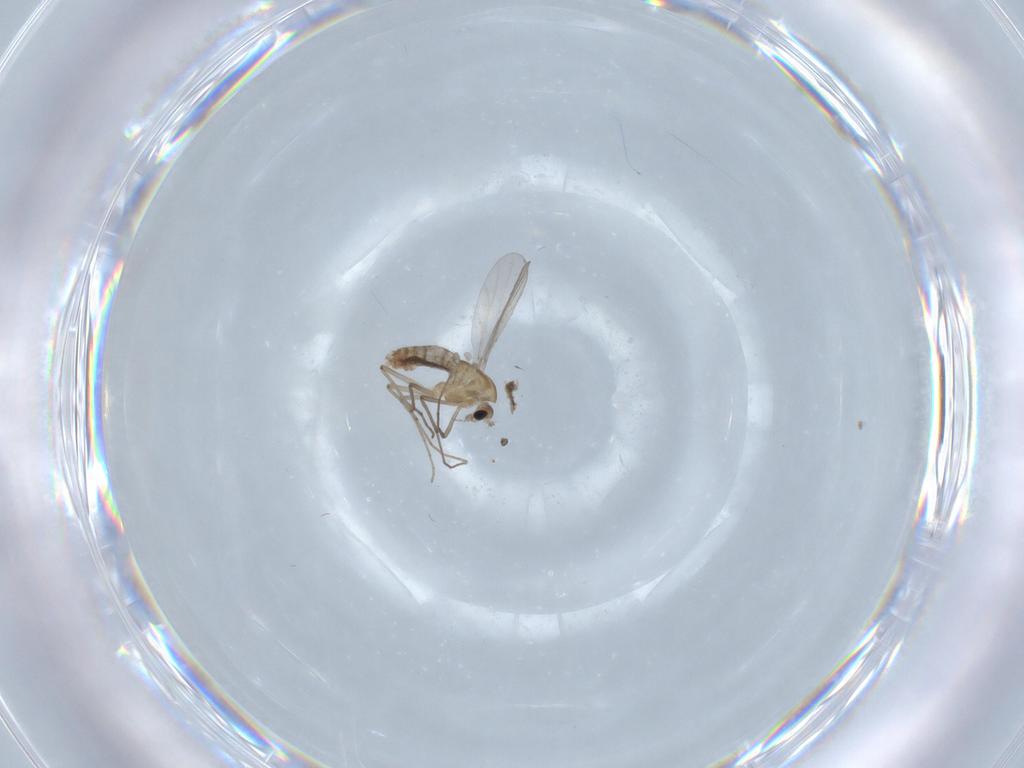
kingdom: Animalia
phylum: Arthropoda
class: Insecta
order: Diptera
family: Chironomidae
